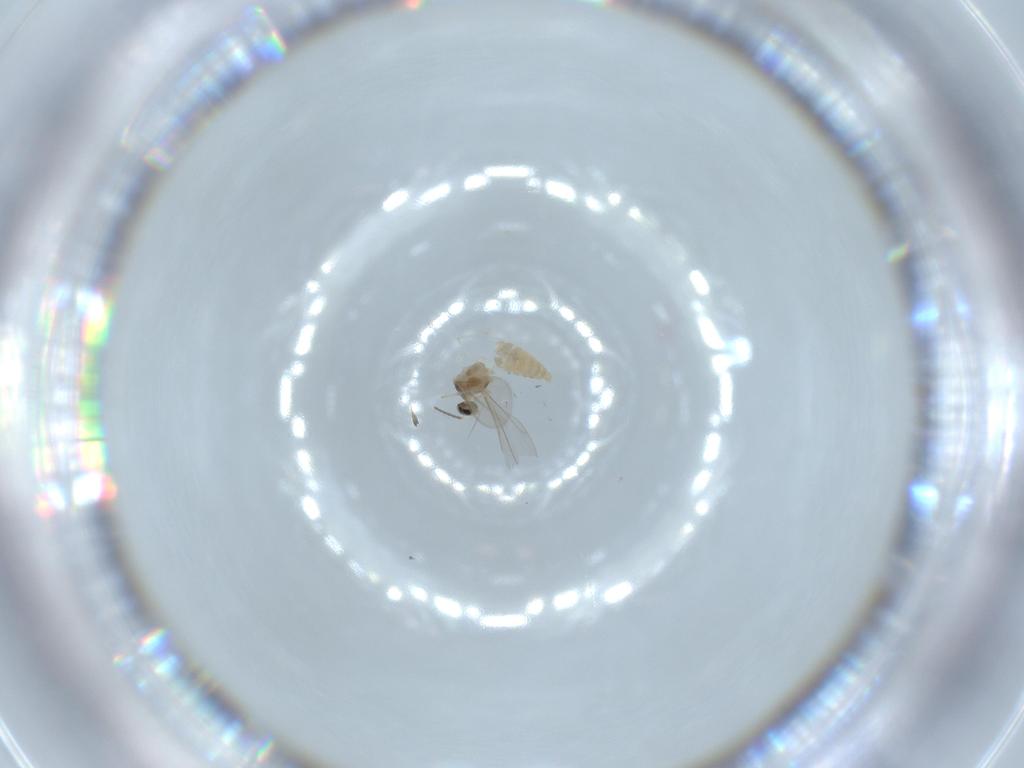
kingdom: Animalia
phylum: Arthropoda
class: Insecta
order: Diptera
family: Cecidomyiidae
